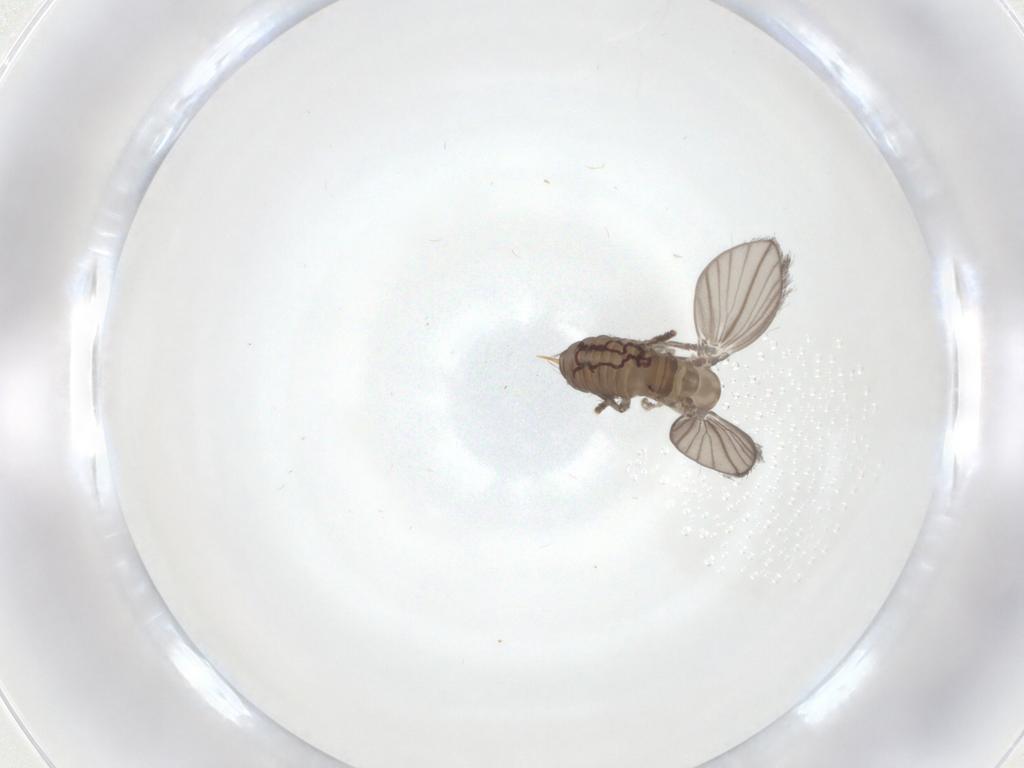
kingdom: Animalia
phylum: Arthropoda
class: Insecta
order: Diptera
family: Psychodidae
